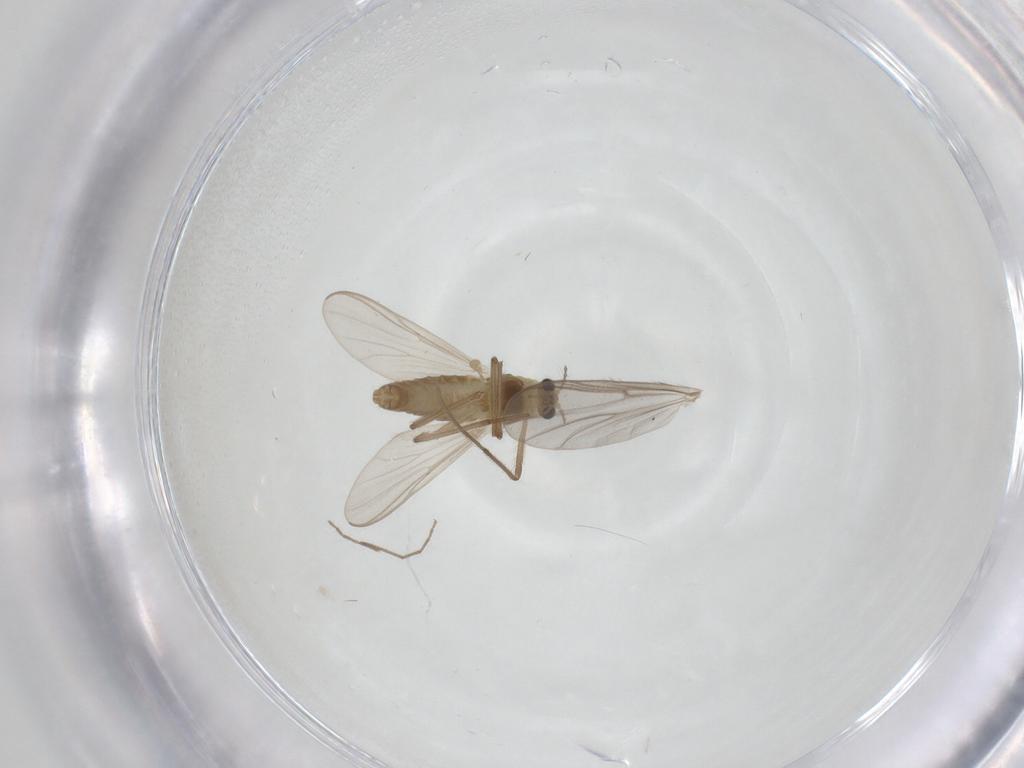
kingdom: Animalia
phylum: Arthropoda
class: Insecta
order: Diptera
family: Chironomidae
